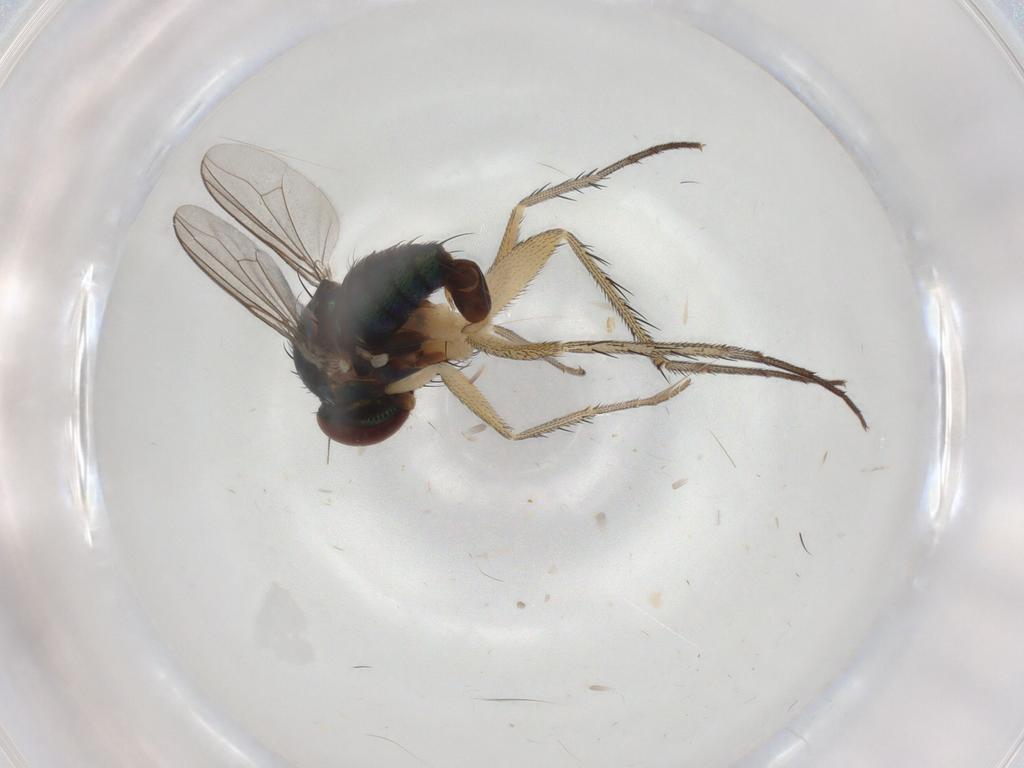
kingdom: Animalia
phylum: Arthropoda
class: Insecta
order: Diptera
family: Dolichopodidae
